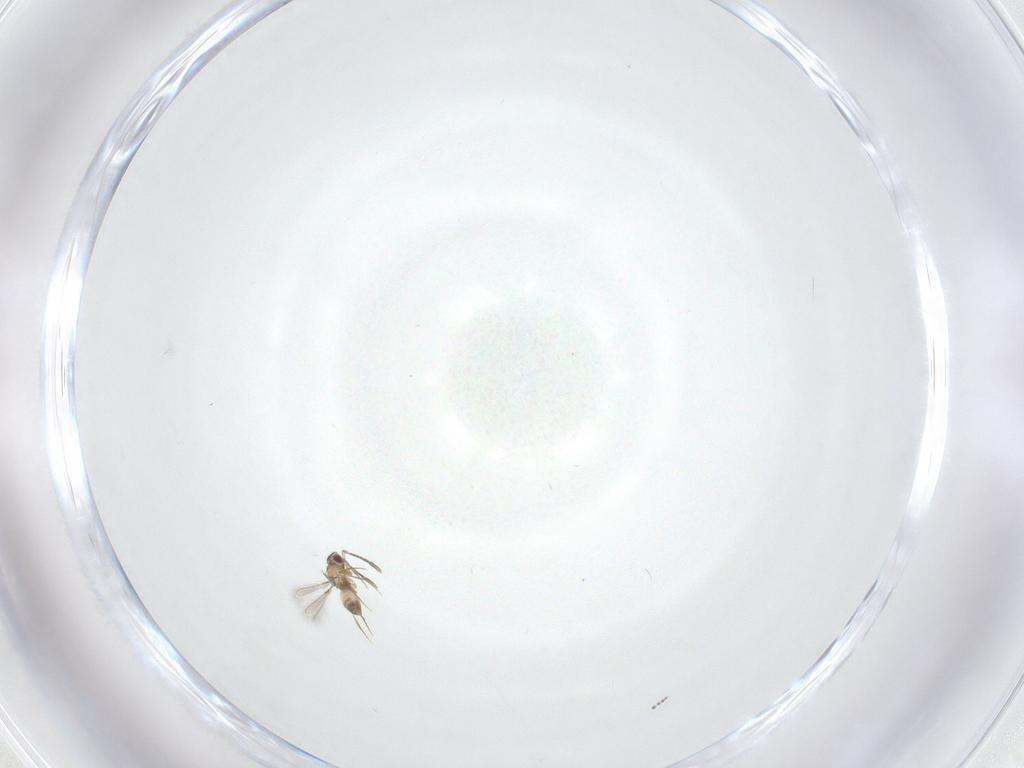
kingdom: Animalia
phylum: Arthropoda
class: Insecta
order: Hymenoptera
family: Mymaridae
